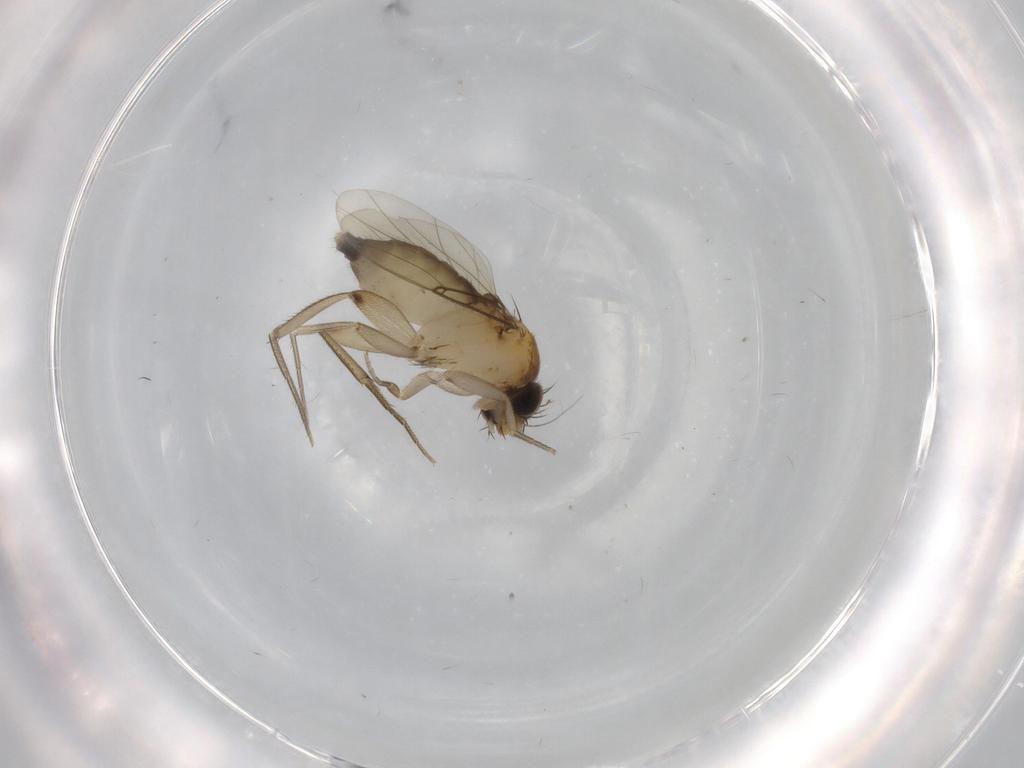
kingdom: Animalia
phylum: Arthropoda
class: Insecta
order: Diptera
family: Phoridae
